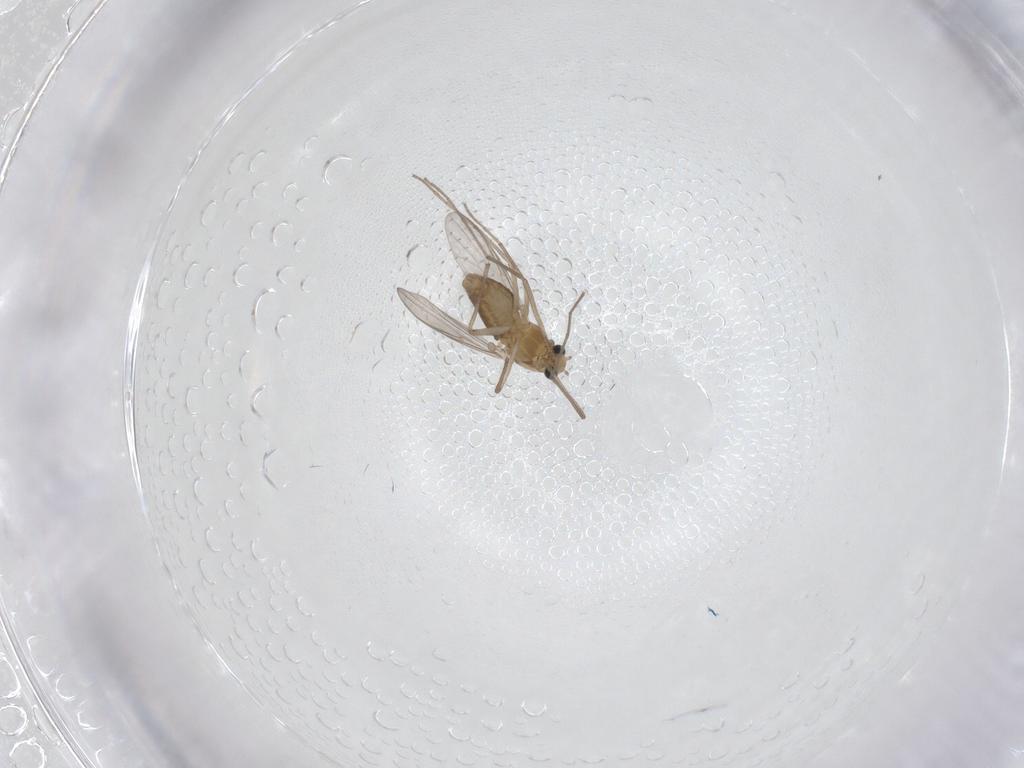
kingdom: Animalia
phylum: Arthropoda
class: Insecta
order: Diptera
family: Chironomidae
